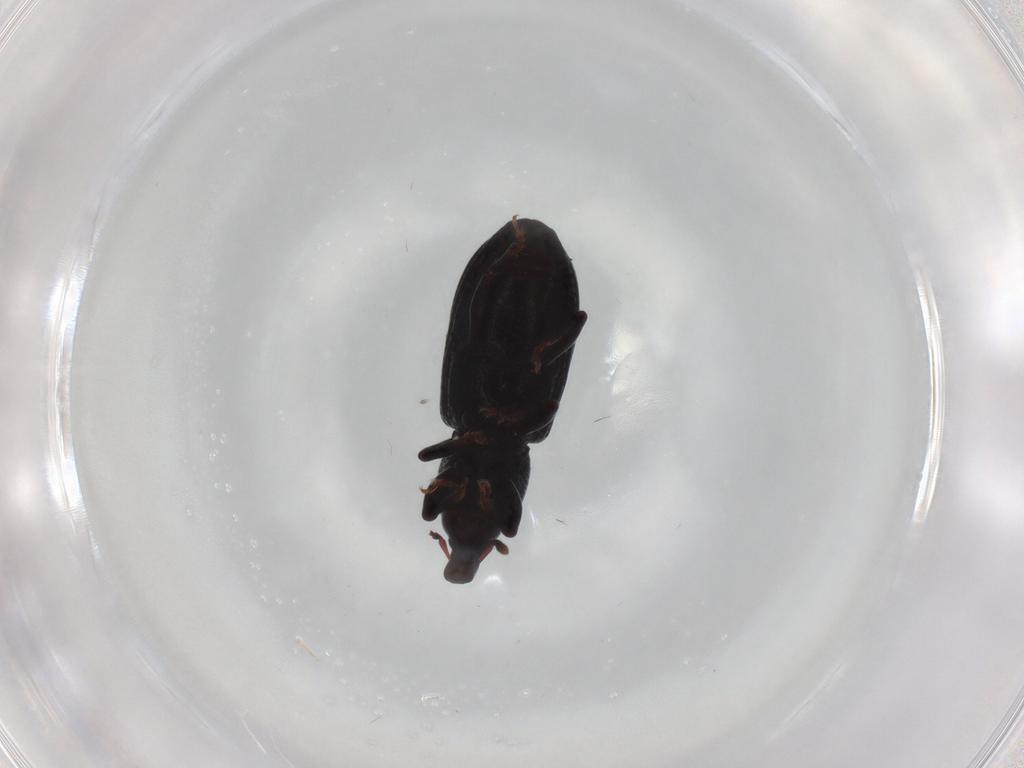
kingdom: Animalia
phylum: Arthropoda
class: Insecta
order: Coleoptera
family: Curculionidae
